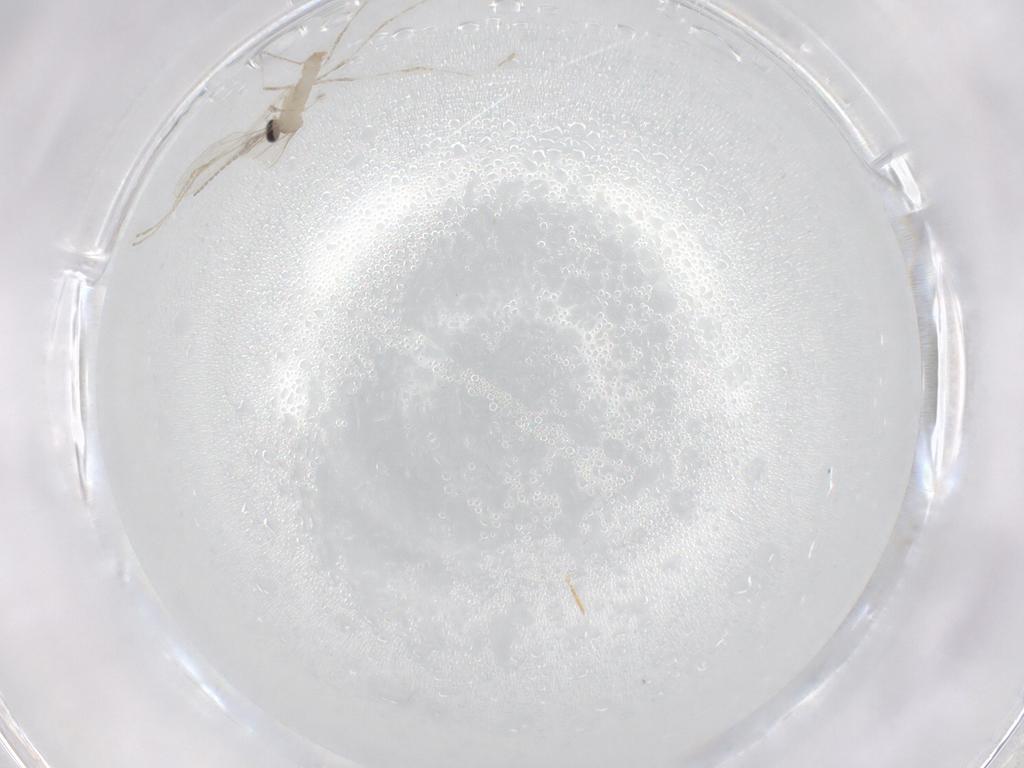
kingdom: Animalia
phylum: Arthropoda
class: Insecta
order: Diptera
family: Cecidomyiidae
